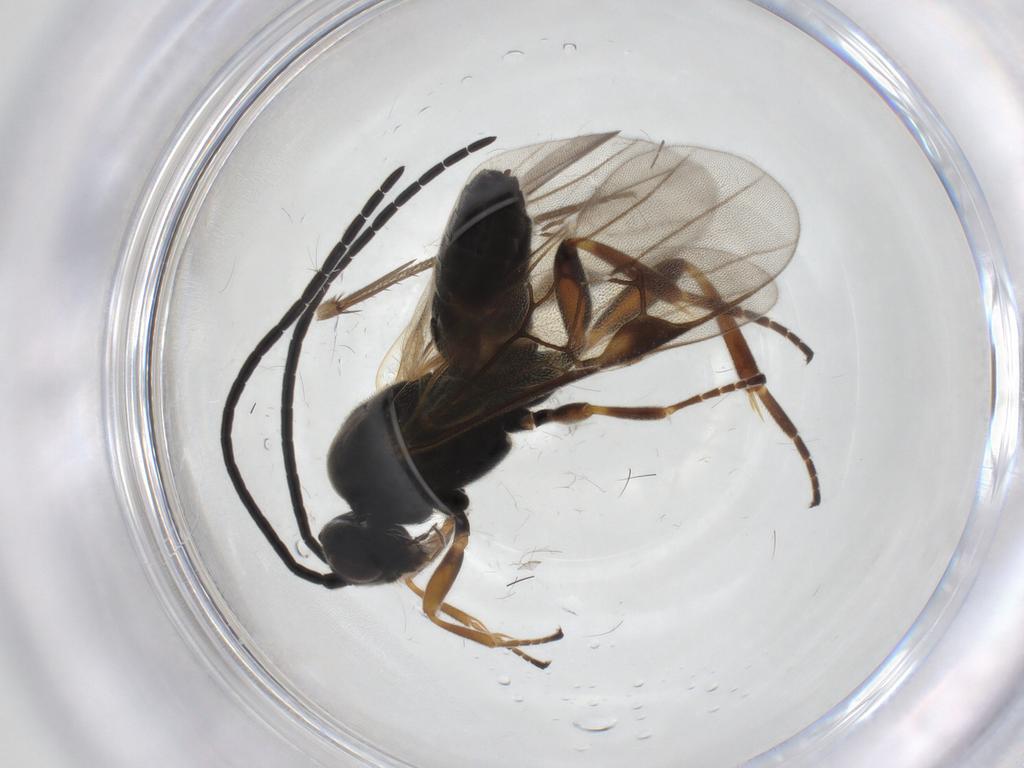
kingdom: Animalia
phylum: Arthropoda
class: Insecta
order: Hymenoptera
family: Braconidae
